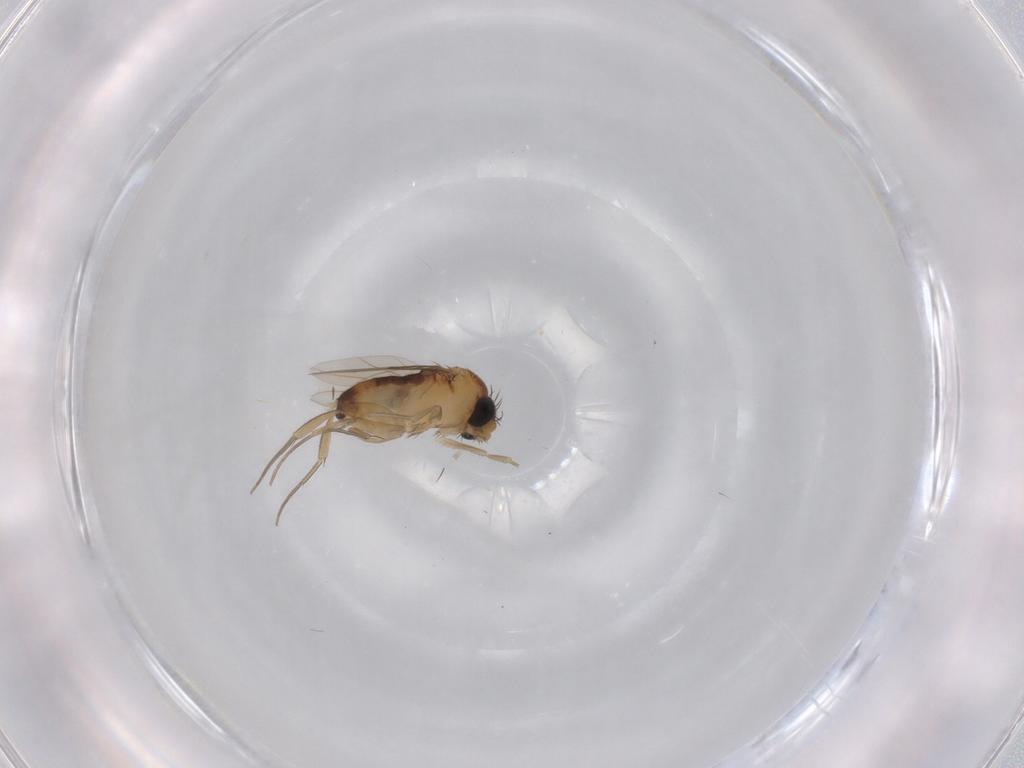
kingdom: Animalia
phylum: Arthropoda
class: Insecta
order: Diptera
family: Phoridae
